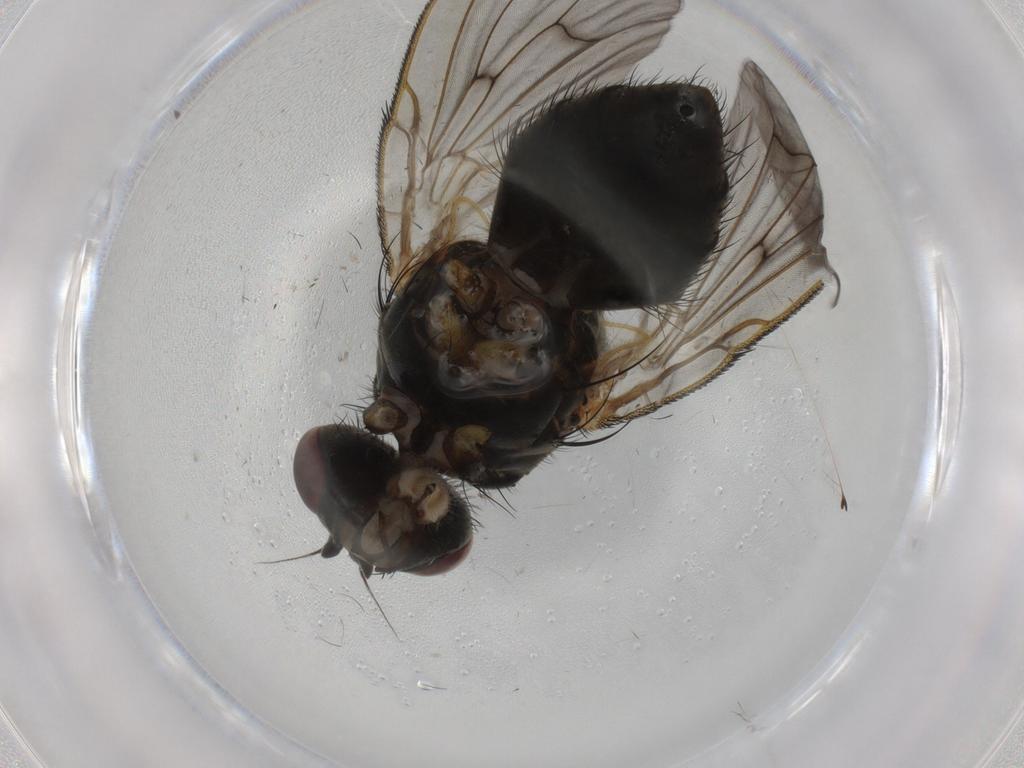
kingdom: Animalia
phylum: Arthropoda
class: Insecta
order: Diptera
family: Muscidae
